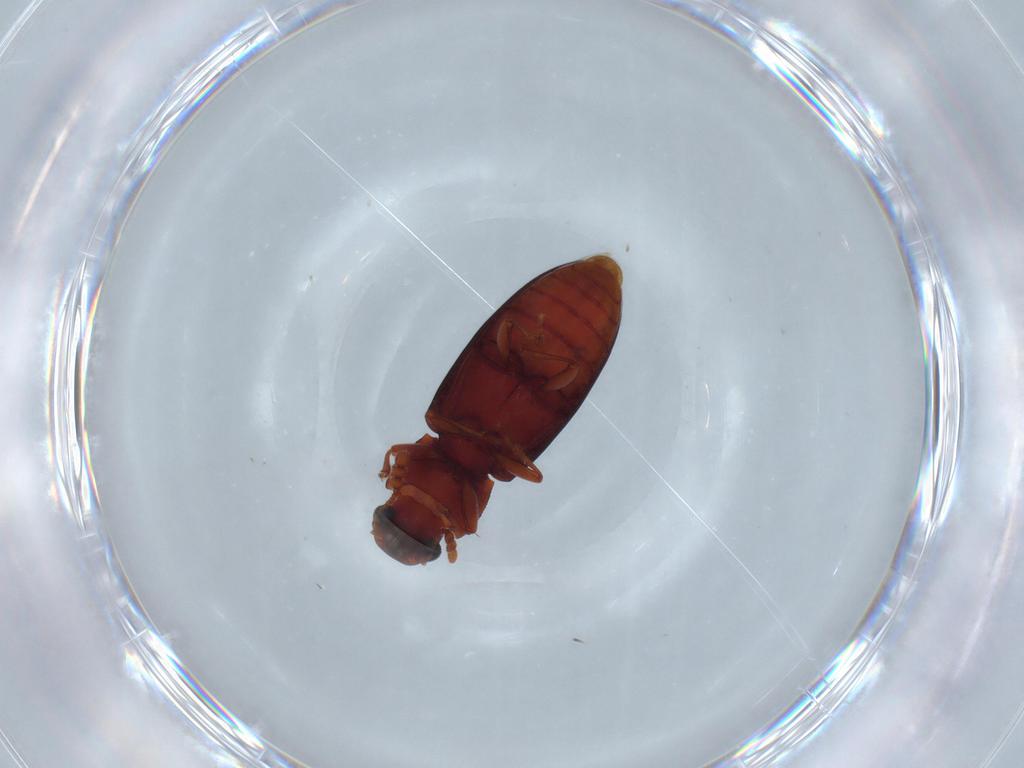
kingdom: Animalia
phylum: Arthropoda
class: Insecta
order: Coleoptera
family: Zopheridae
